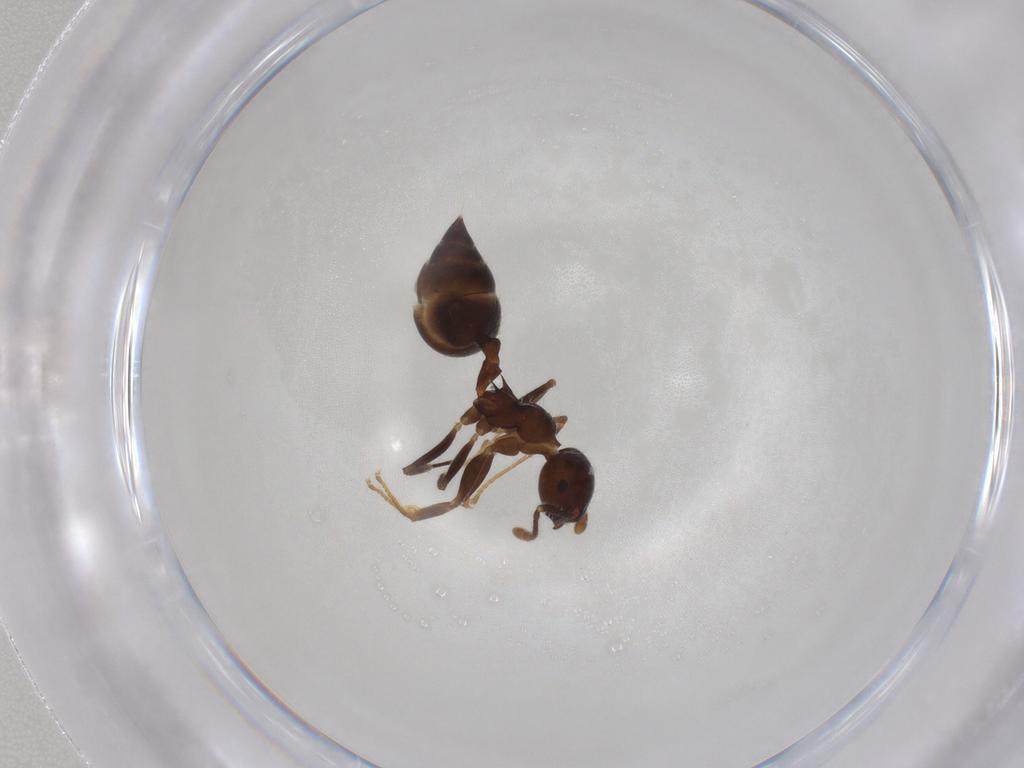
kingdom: Animalia
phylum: Arthropoda
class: Insecta
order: Hymenoptera
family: Formicidae
